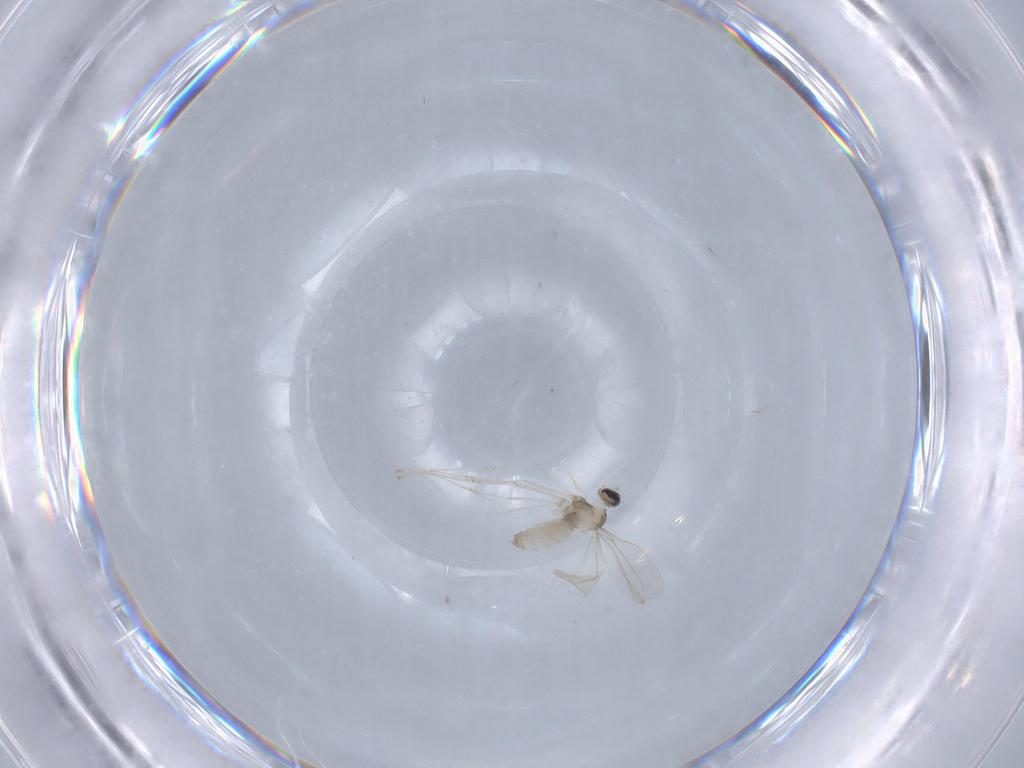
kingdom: Animalia
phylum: Arthropoda
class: Insecta
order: Diptera
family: Cecidomyiidae
